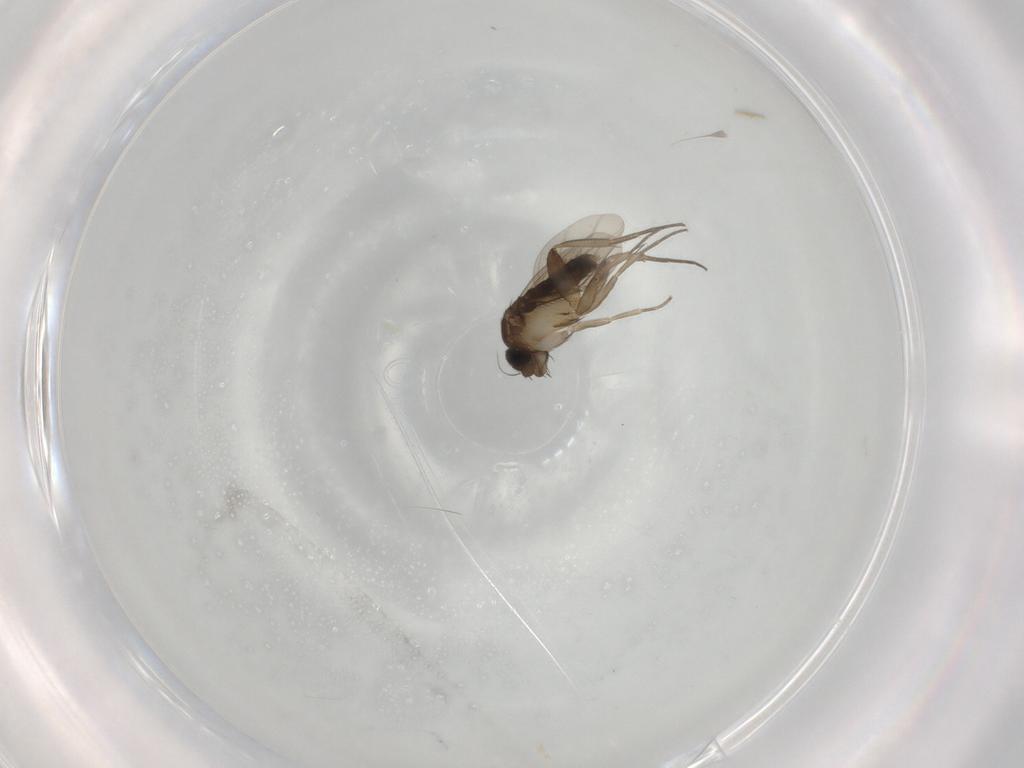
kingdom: Animalia
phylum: Arthropoda
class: Insecta
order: Diptera
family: Phoridae
